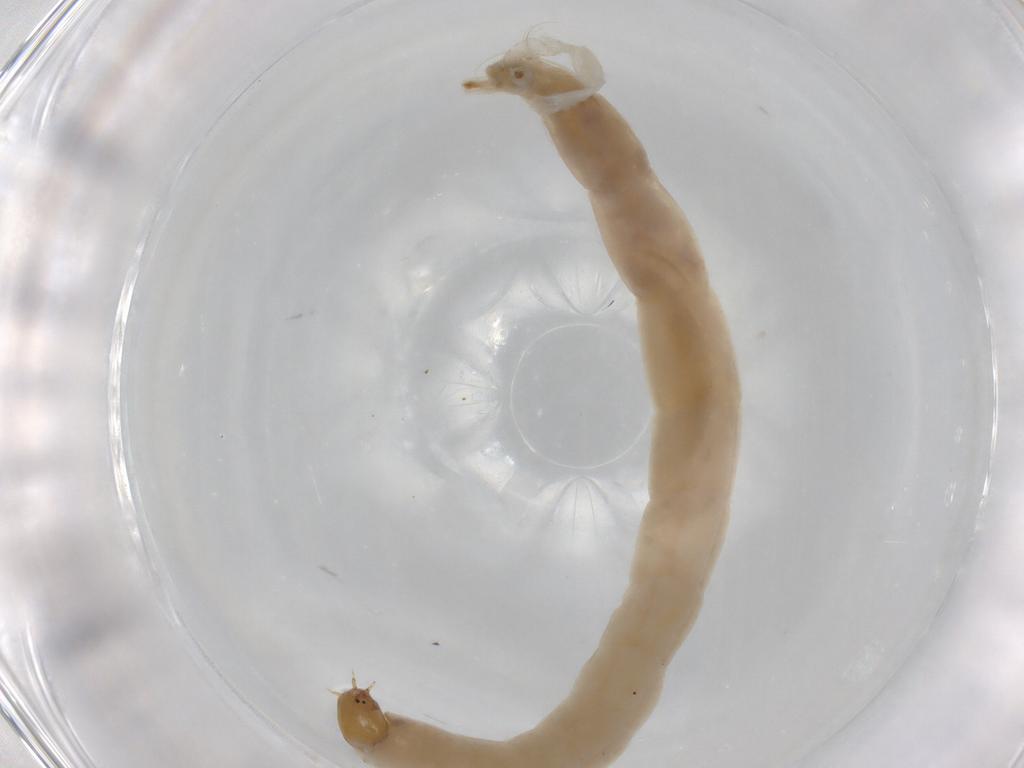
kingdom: Animalia
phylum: Arthropoda
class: Insecta
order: Diptera
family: Chironomidae
